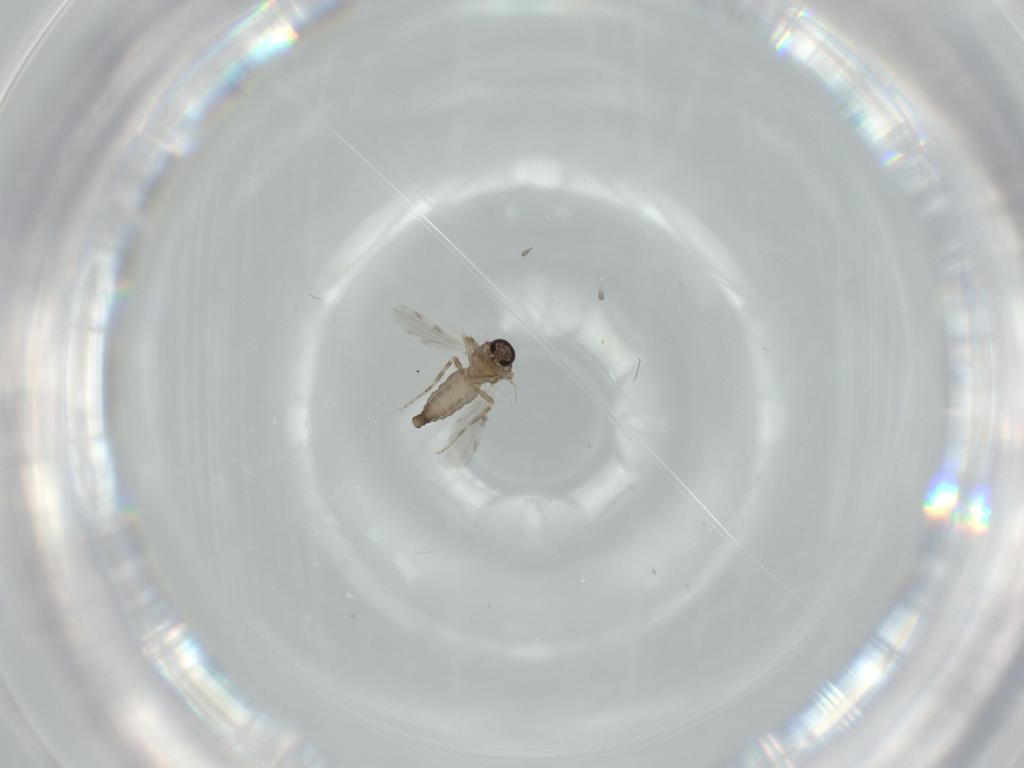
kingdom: Animalia
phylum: Arthropoda
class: Insecta
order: Diptera
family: Ceratopogonidae
